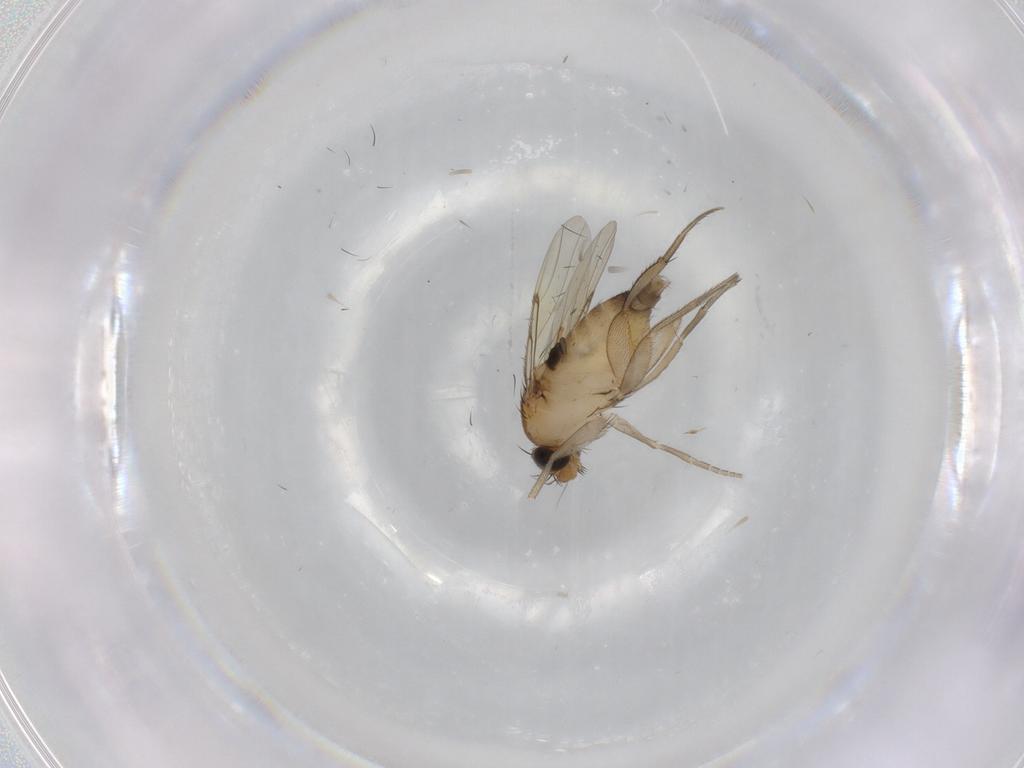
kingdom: Animalia
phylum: Arthropoda
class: Insecta
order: Diptera
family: Phoridae
